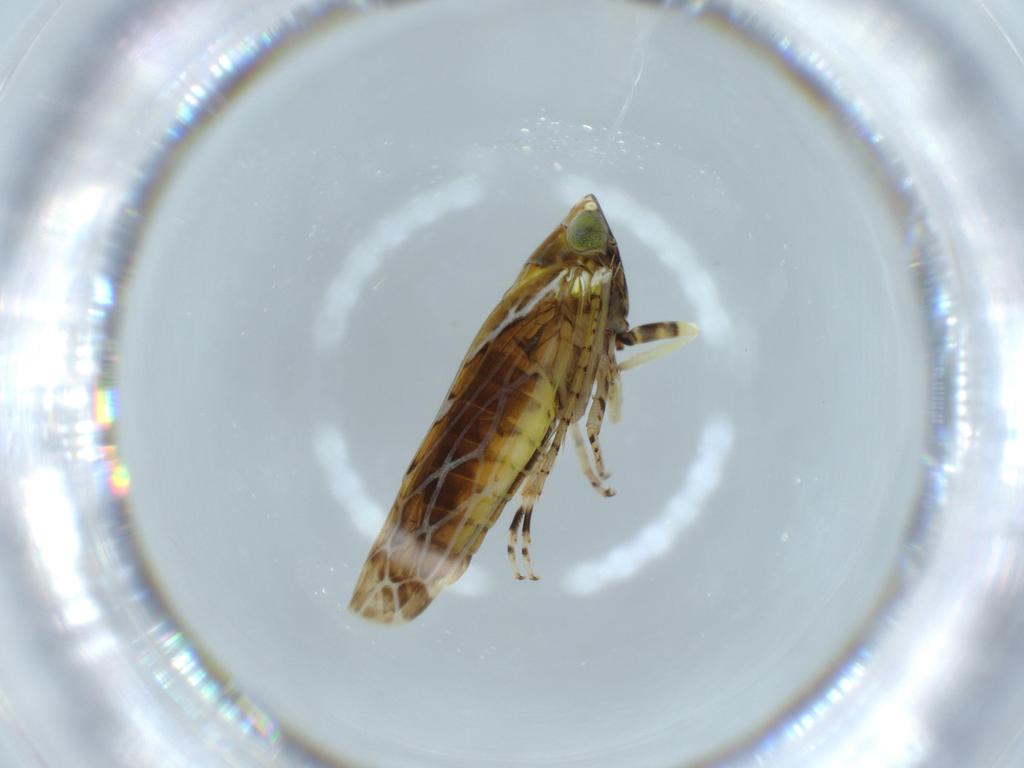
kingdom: Animalia
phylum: Arthropoda
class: Insecta
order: Hemiptera
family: Cicadellidae
